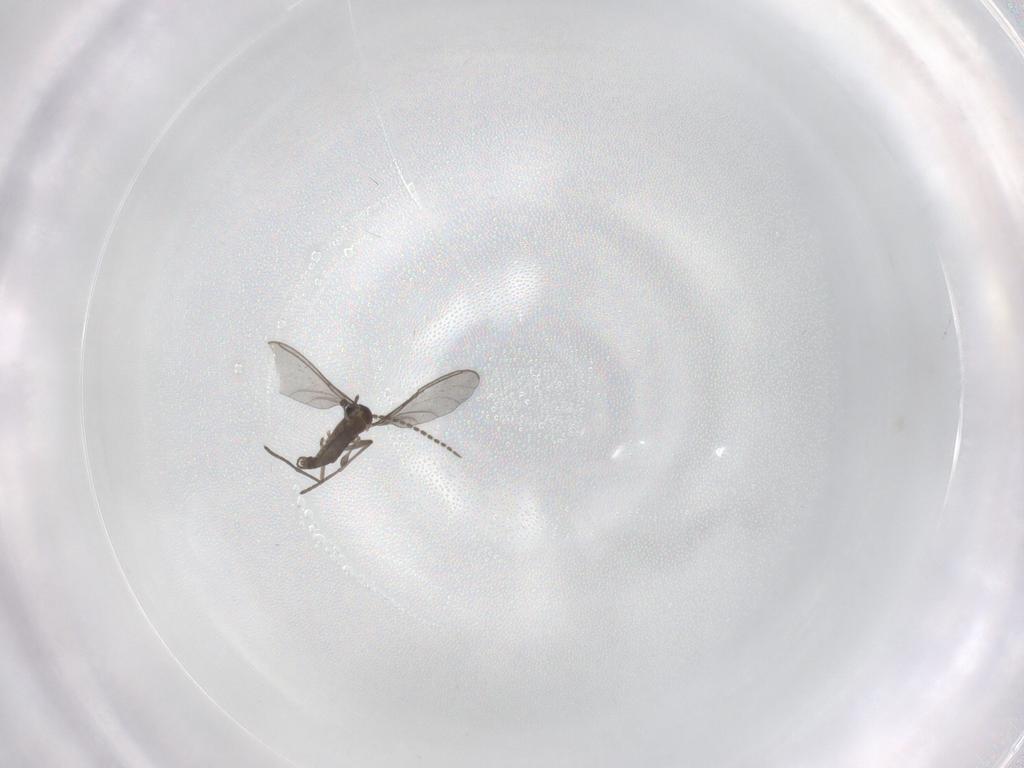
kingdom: Animalia
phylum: Arthropoda
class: Insecta
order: Diptera
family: Sciaridae
